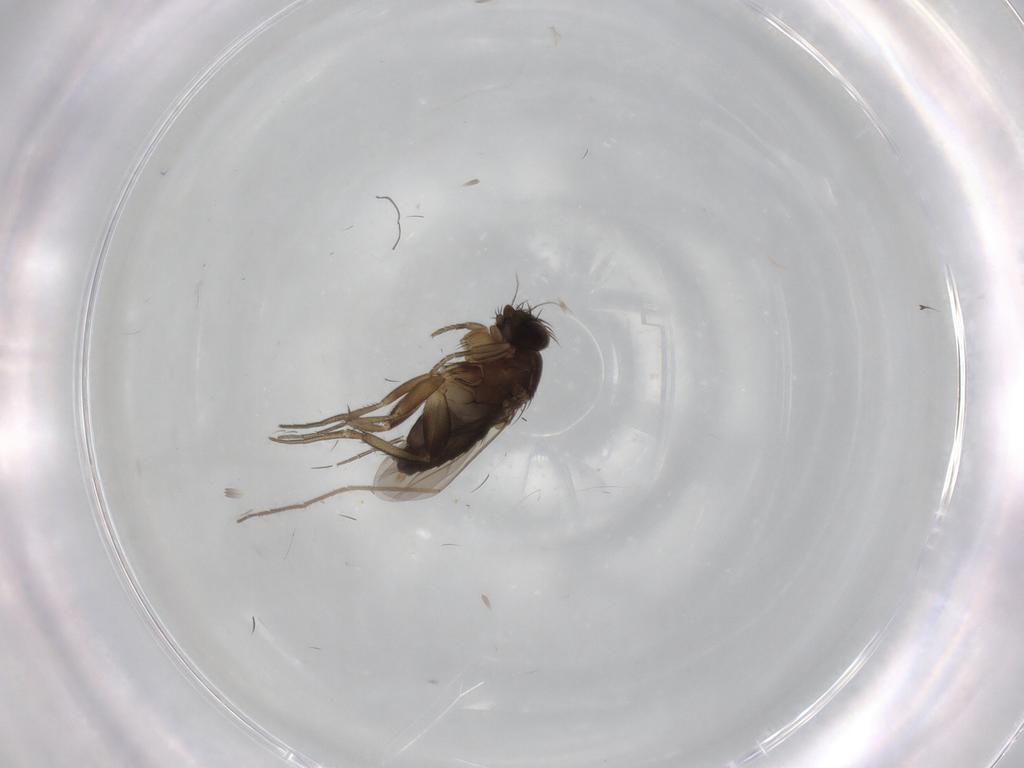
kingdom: Animalia
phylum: Arthropoda
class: Insecta
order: Diptera
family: Phoridae
